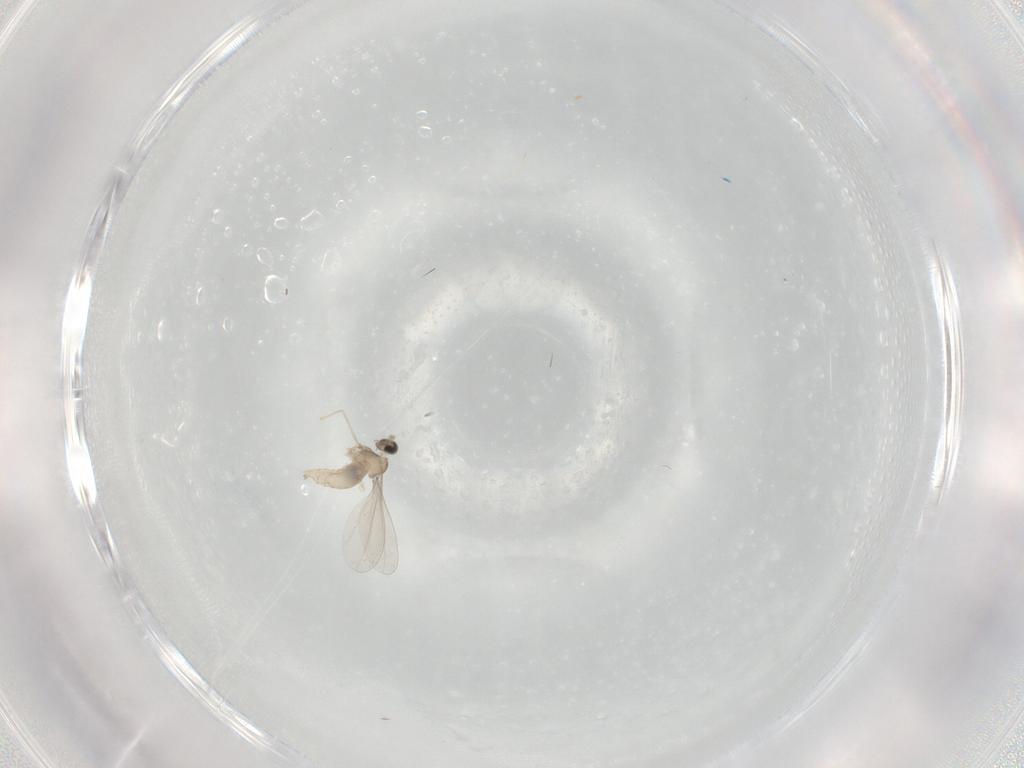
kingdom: Animalia
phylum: Arthropoda
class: Insecta
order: Diptera
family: Cecidomyiidae
